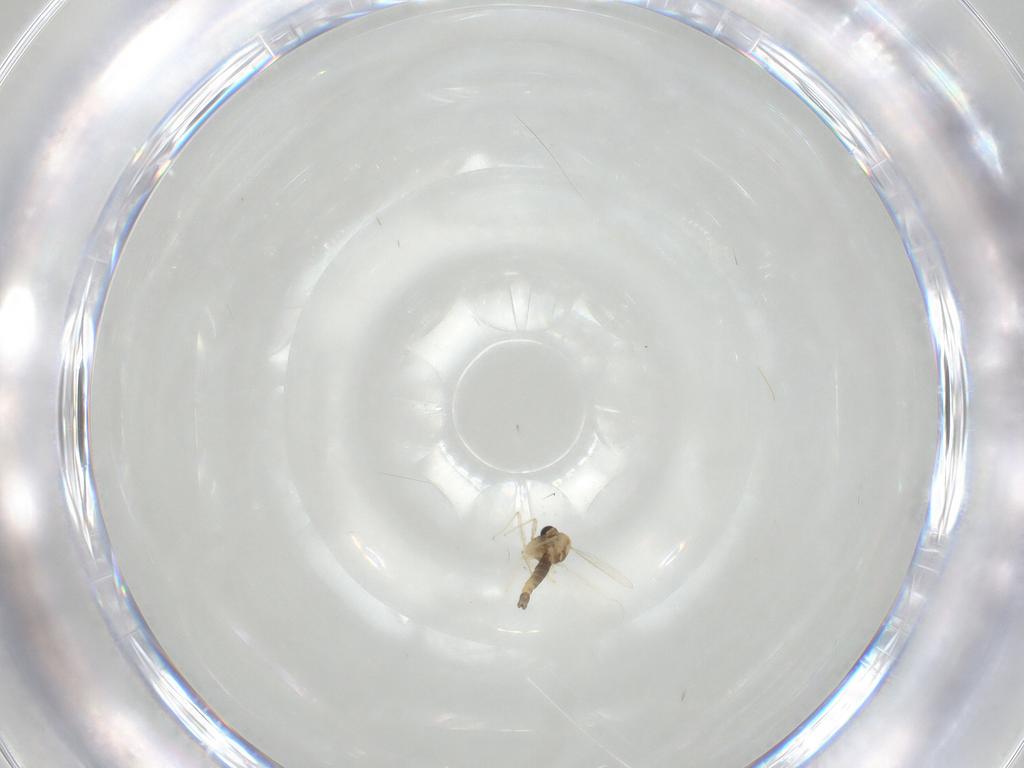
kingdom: Animalia
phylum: Arthropoda
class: Insecta
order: Diptera
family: Chironomidae
